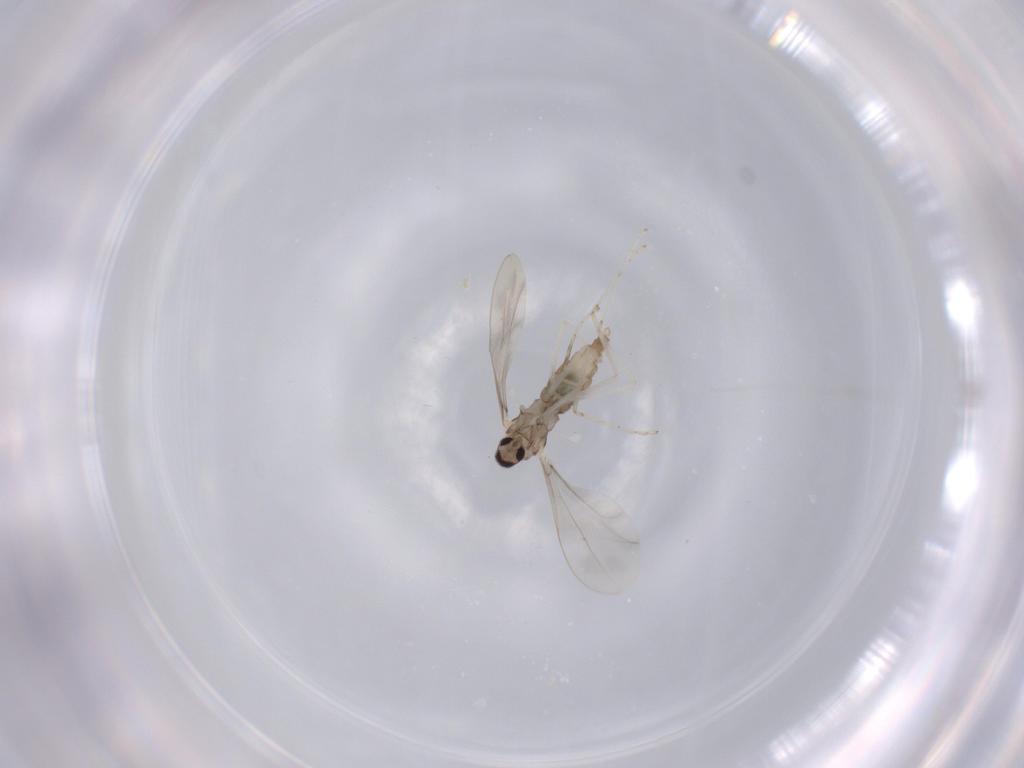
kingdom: Animalia
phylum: Arthropoda
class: Insecta
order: Diptera
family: Cecidomyiidae
